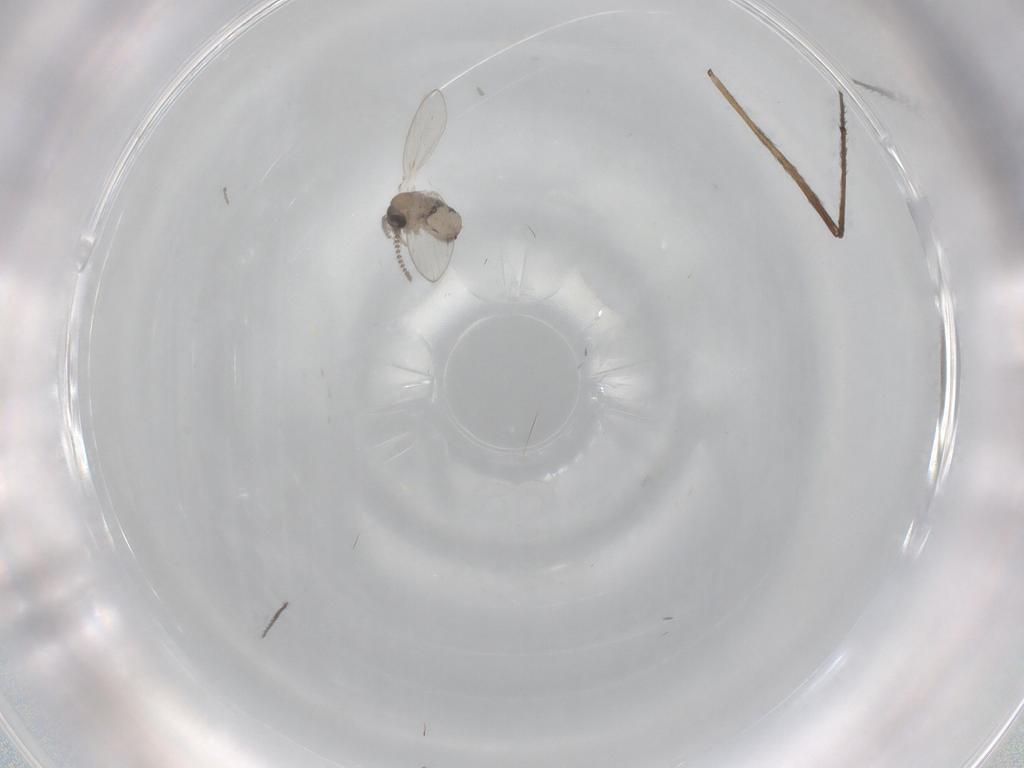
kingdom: Animalia
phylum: Arthropoda
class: Insecta
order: Diptera
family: Psychodidae
